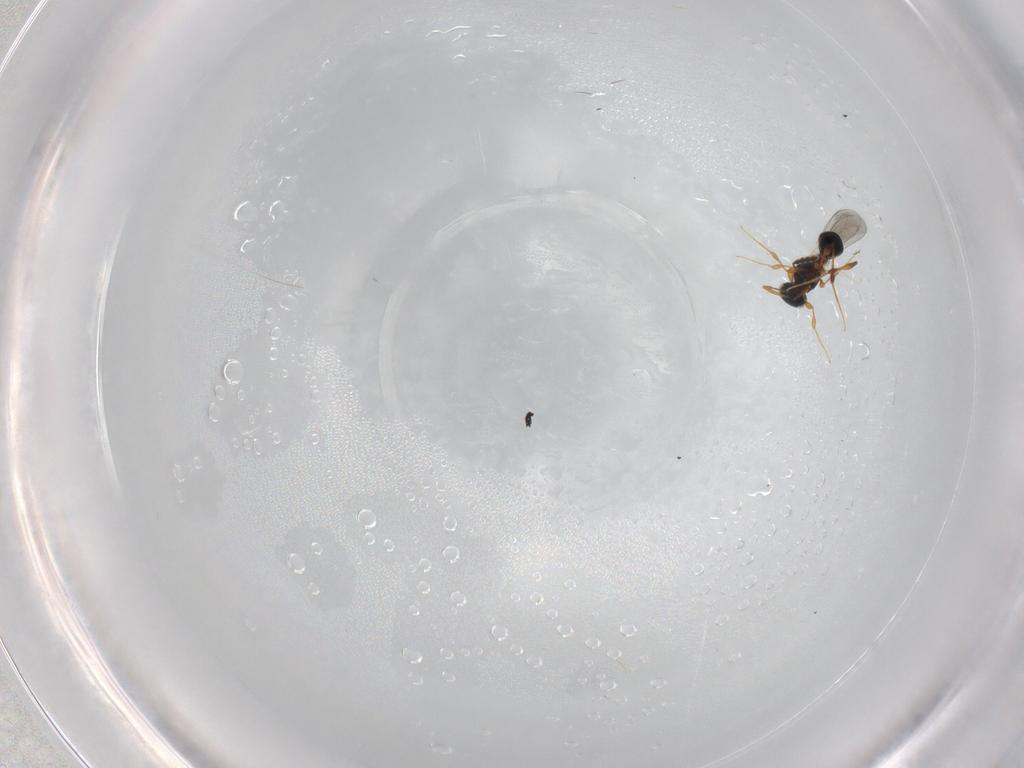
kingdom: Animalia
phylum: Arthropoda
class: Insecta
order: Hymenoptera
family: Platygastridae
